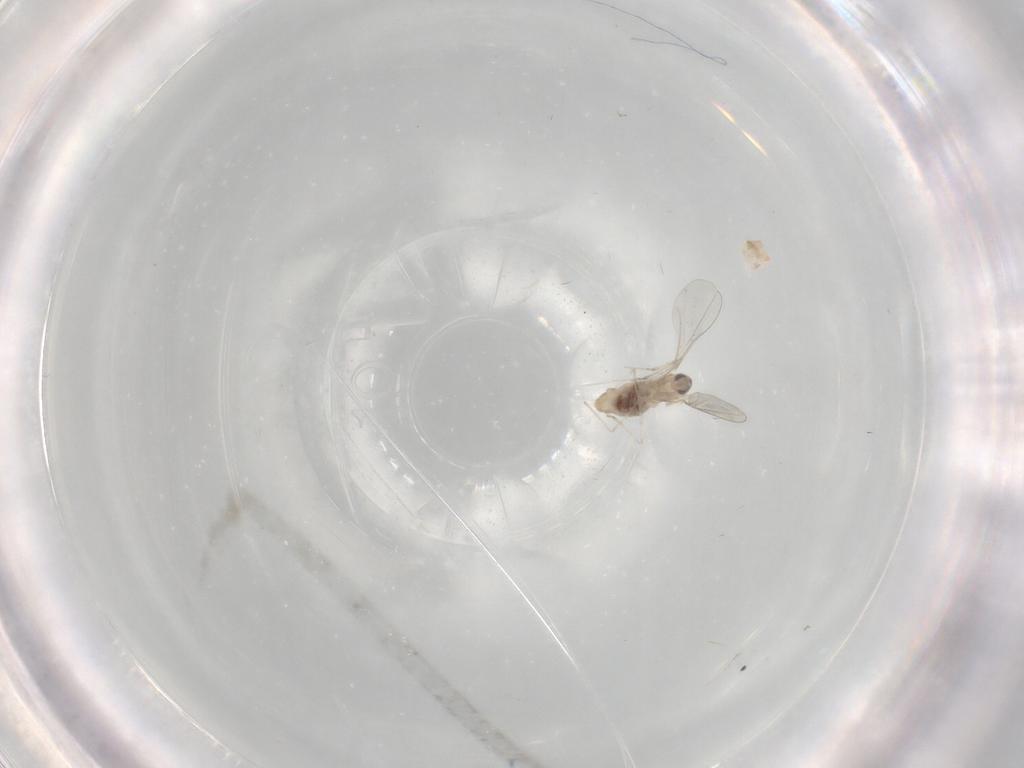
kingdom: Animalia
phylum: Arthropoda
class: Insecta
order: Diptera
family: Cecidomyiidae
